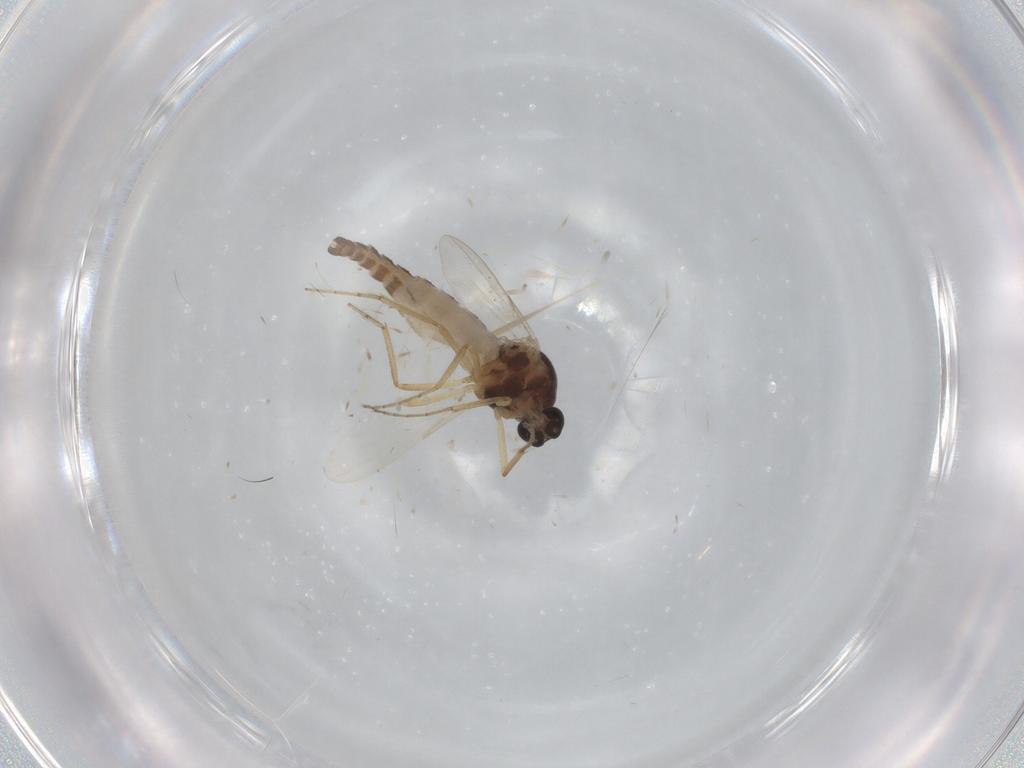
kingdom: Animalia
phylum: Arthropoda
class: Insecta
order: Diptera
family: Ceratopogonidae
